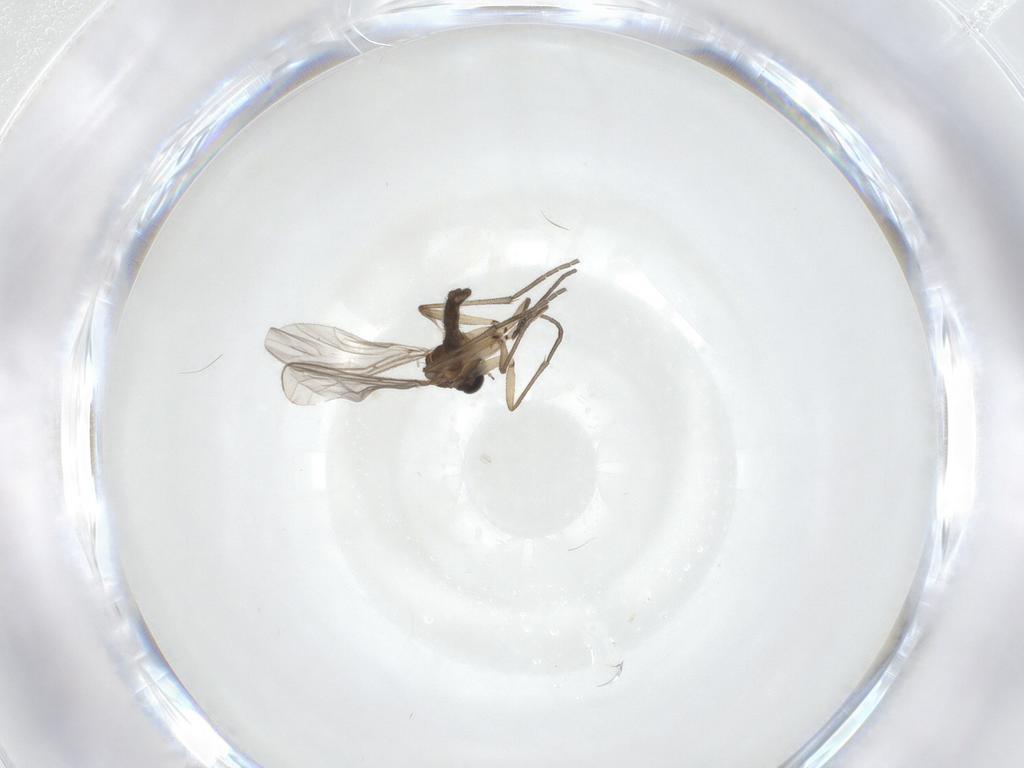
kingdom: Animalia
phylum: Arthropoda
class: Insecta
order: Diptera
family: Sciaridae
